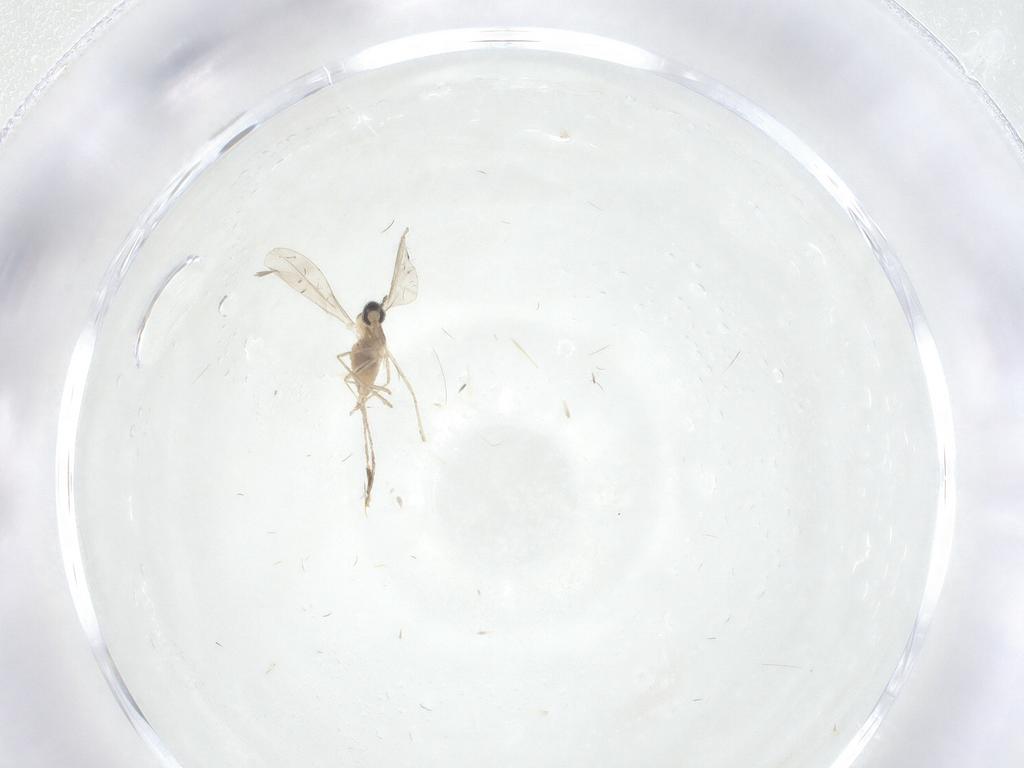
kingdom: Animalia
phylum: Arthropoda
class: Insecta
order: Diptera
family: Cecidomyiidae
